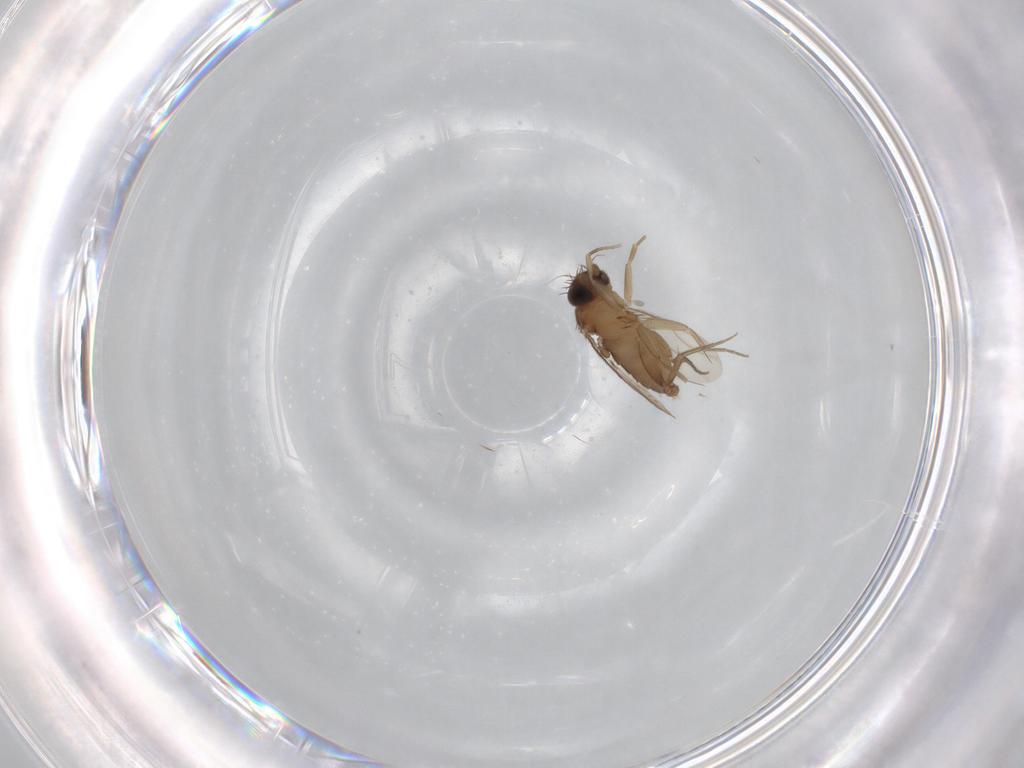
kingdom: Animalia
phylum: Arthropoda
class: Insecta
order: Diptera
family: Phoridae
